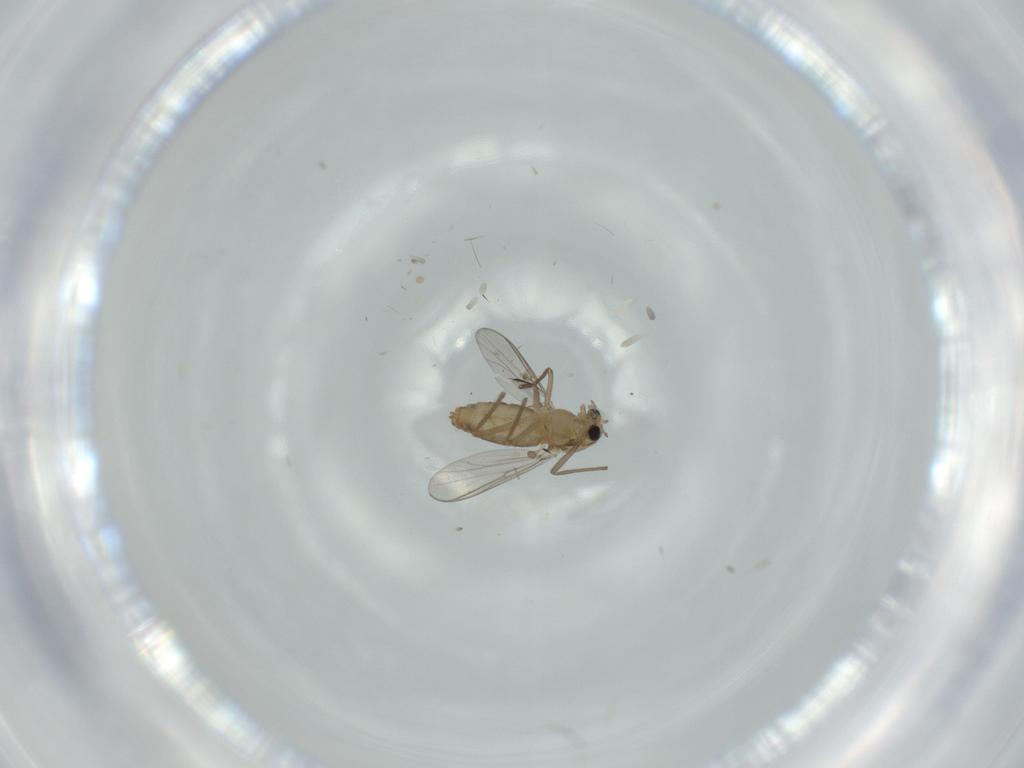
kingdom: Animalia
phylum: Arthropoda
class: Insecta
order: Diptera
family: Chironomidae
